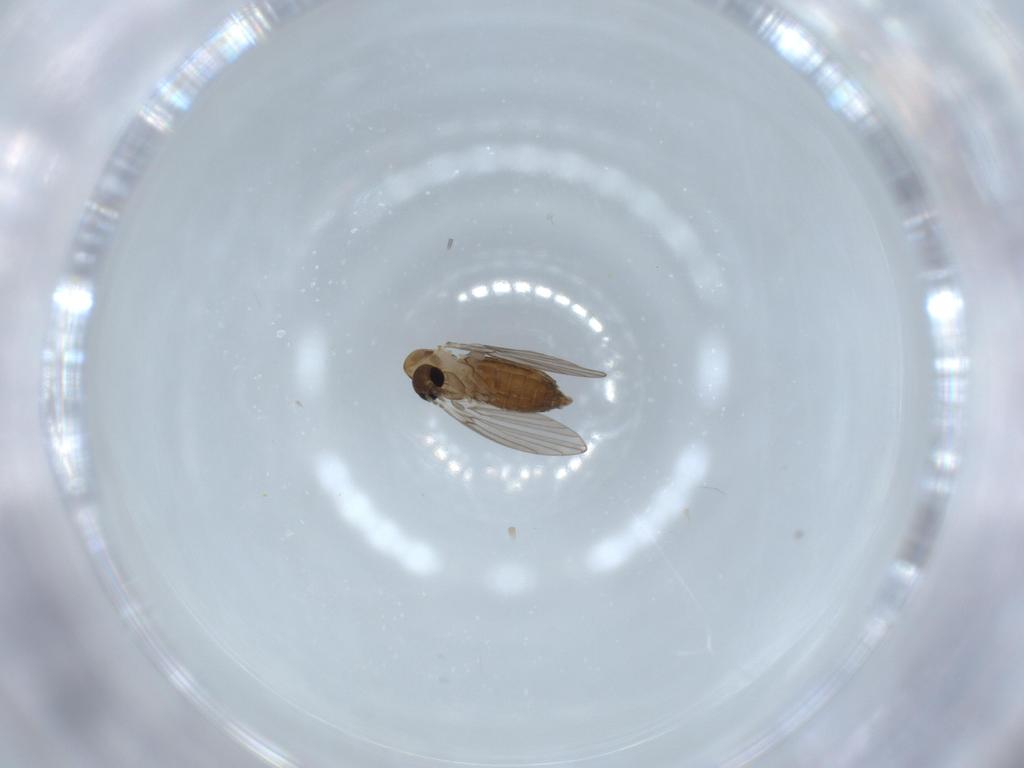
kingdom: Animalia
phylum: Arthropoda
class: Insecta
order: Diptera
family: Psychodidae
